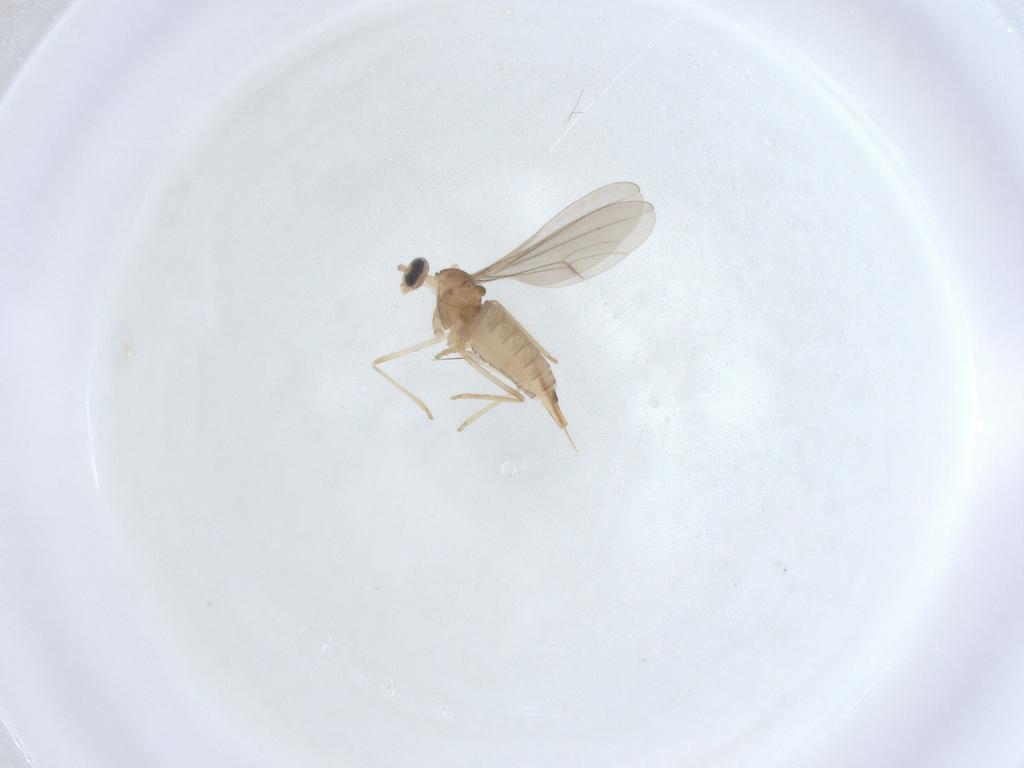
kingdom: Animalia
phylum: Arthropoda
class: Insecta
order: Diptera
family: Cecidomyiidae
